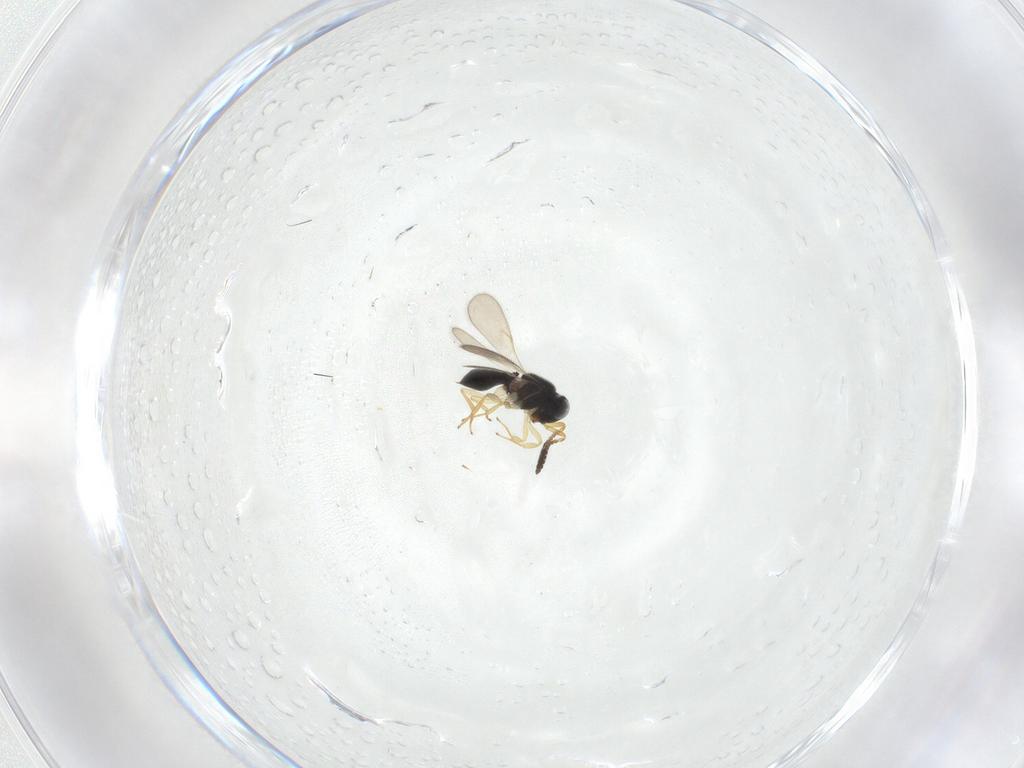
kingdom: Animalia
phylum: Arthropoda
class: Insecta
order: Hymenoptera
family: Scelionidae
